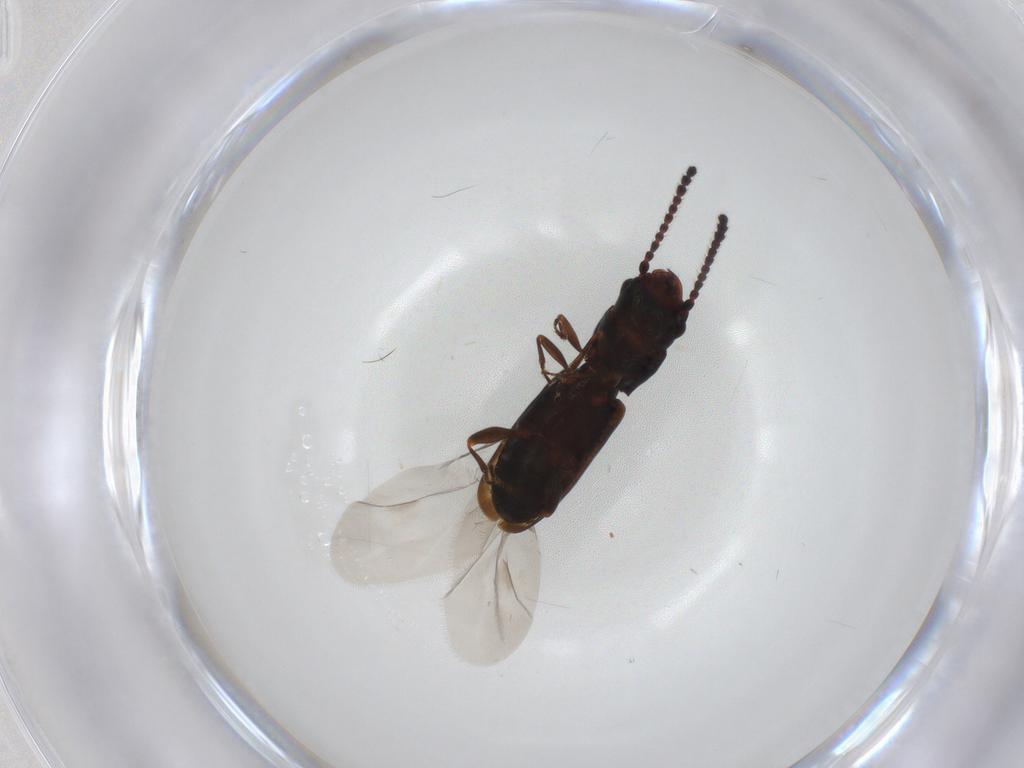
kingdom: Animalia
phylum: Arthropoda
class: Insecta
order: Coleoptera
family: Laemophloeidae
